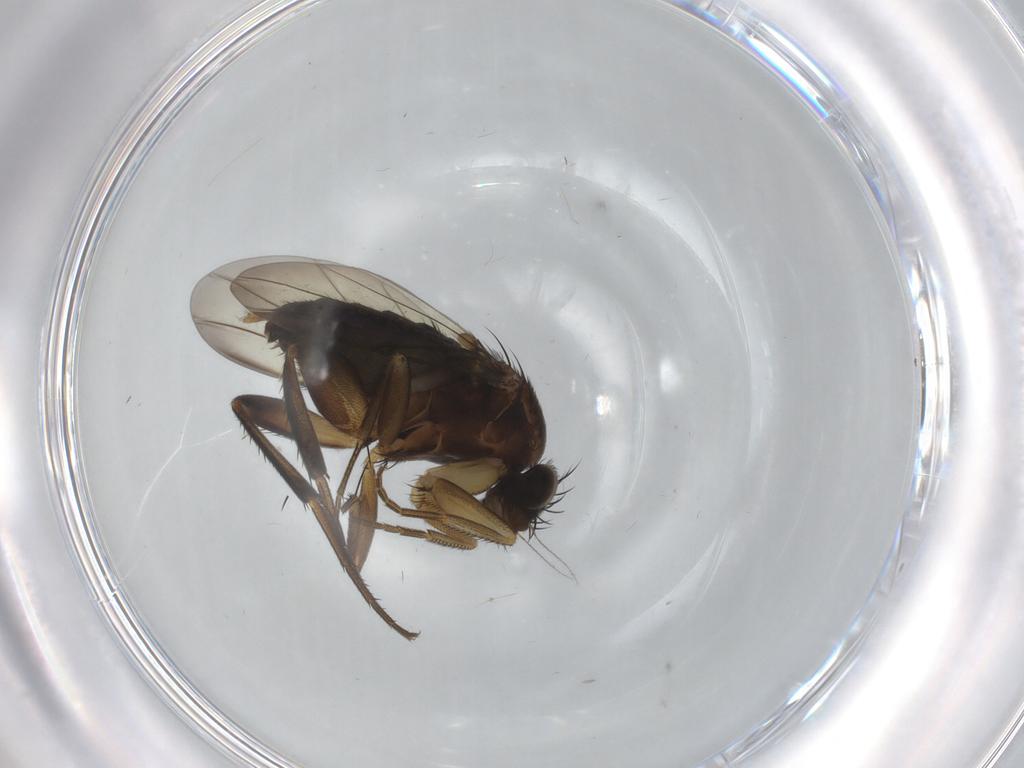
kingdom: Animalia
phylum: Arthropoda
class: Insecta
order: Diptera
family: Phoridae
